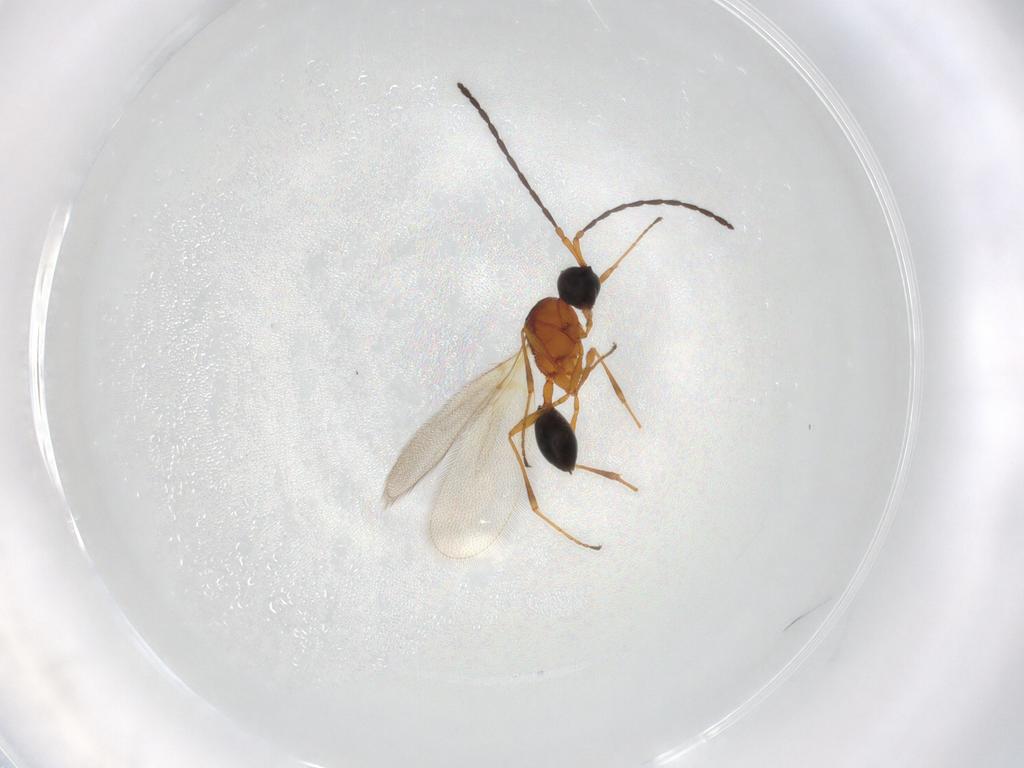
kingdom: Animalia
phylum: Arthropoda
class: Insecta
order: Hymenoptera
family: Diapriidae
